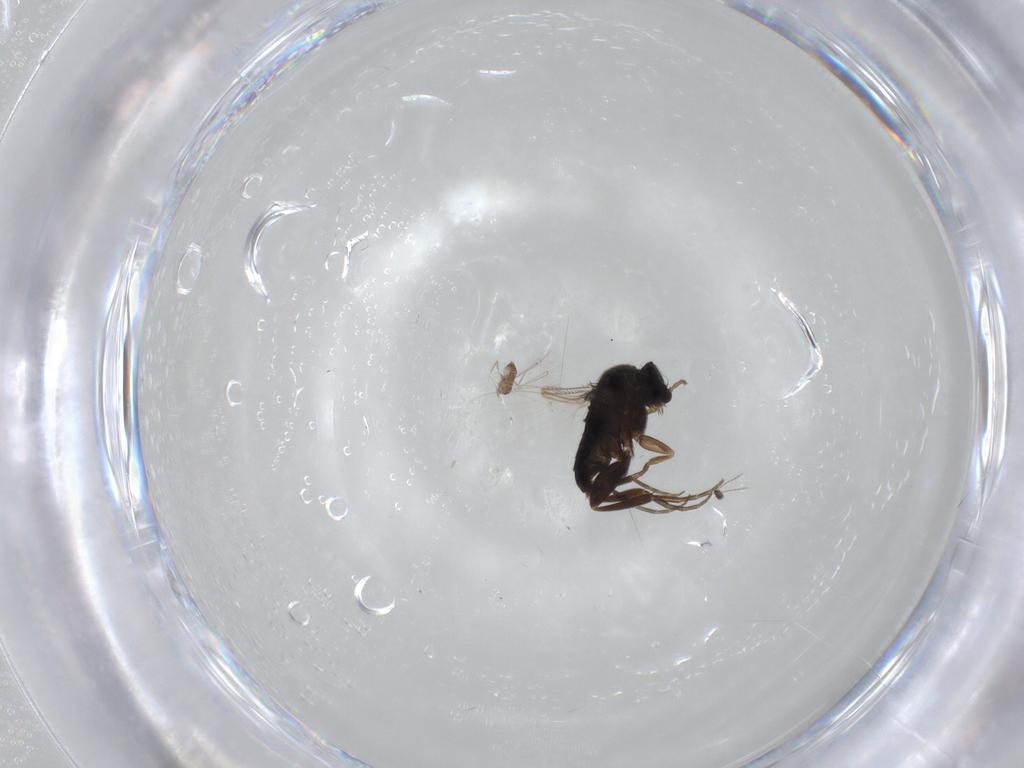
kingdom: Animalia
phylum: Arthropoda
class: Insecta
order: Diptera
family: Phoridae
